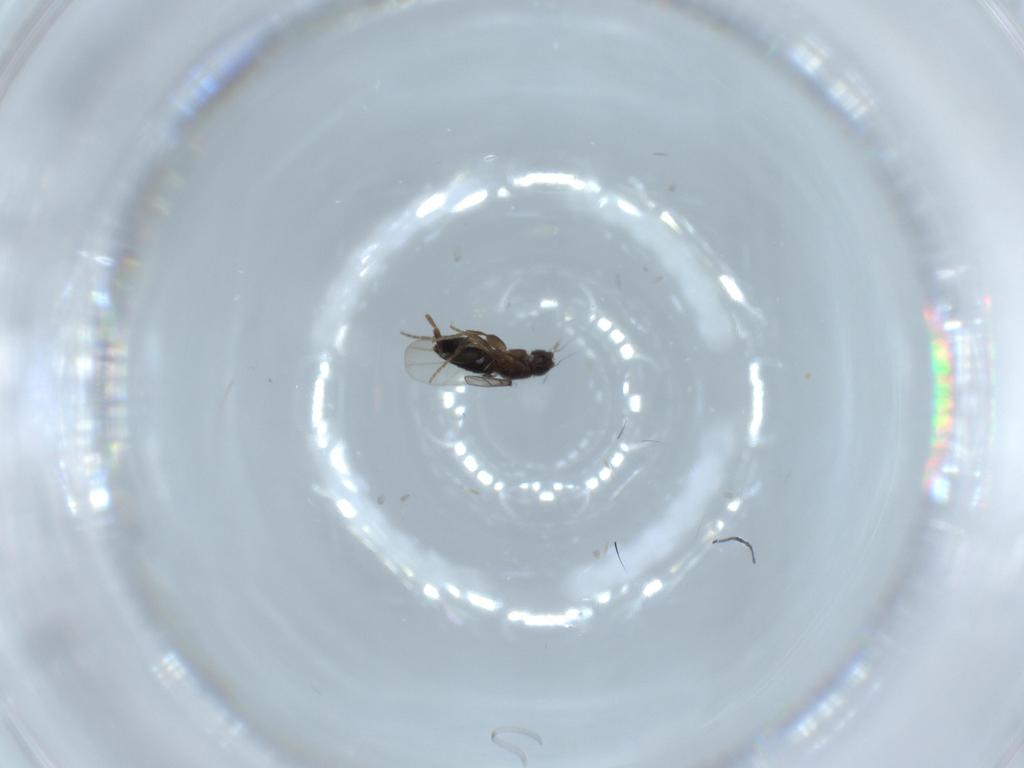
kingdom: Animalia
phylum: Arthropoda
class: Insecta
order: Diptera
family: Phoridae
